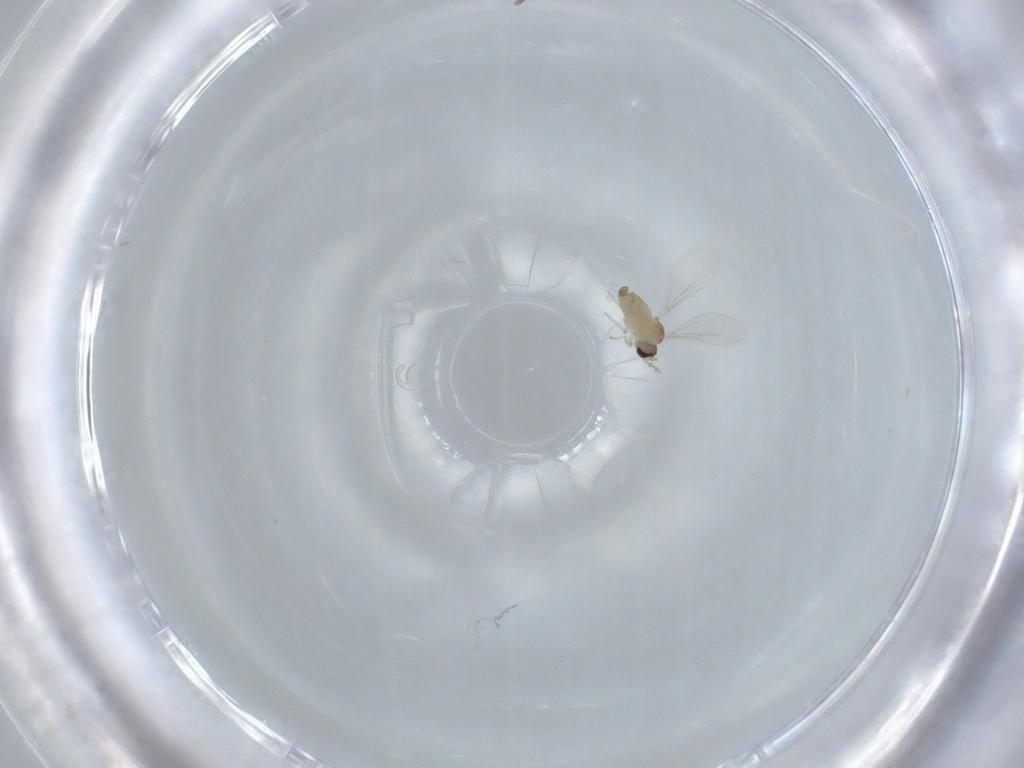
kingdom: Animalia
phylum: Arthropoda
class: Insecta
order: Diptera
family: Cecidomyiidae
